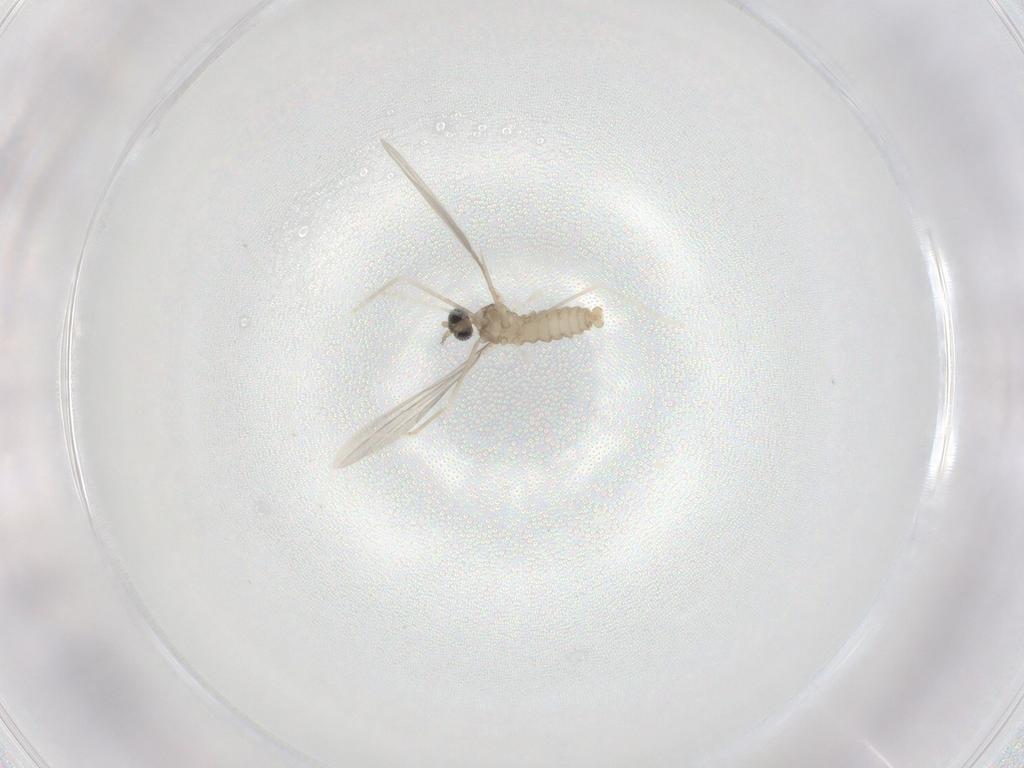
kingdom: Animalia
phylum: Arthropoda
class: Insecta
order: Diptera
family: Cecidomyiidae
